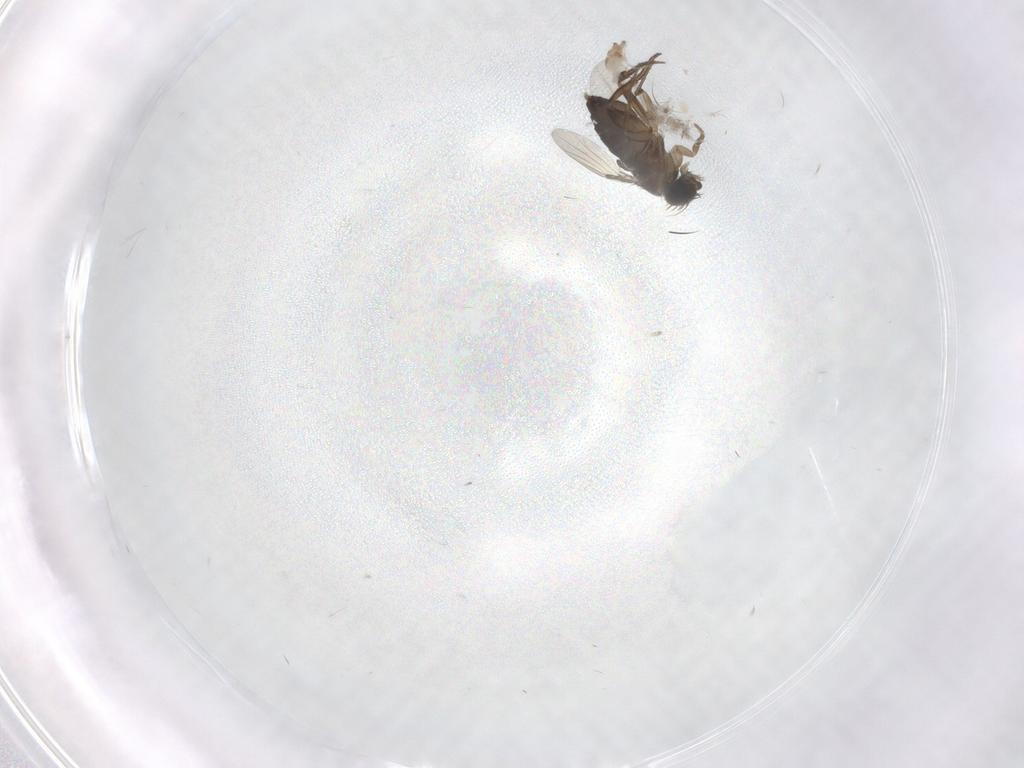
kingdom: Animalia
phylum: Arthropoda
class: Insecta
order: Diptera
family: Phoridae
